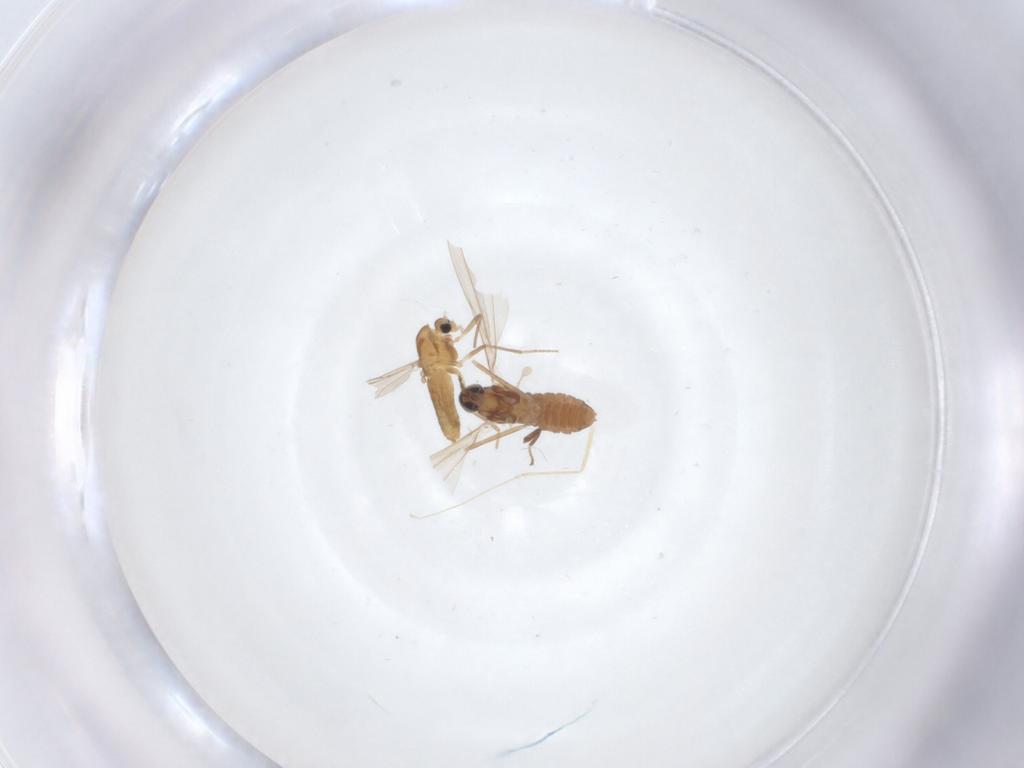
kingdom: Animalia
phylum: Arthropoda
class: Insecta
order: Diptera
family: Chironomidae
